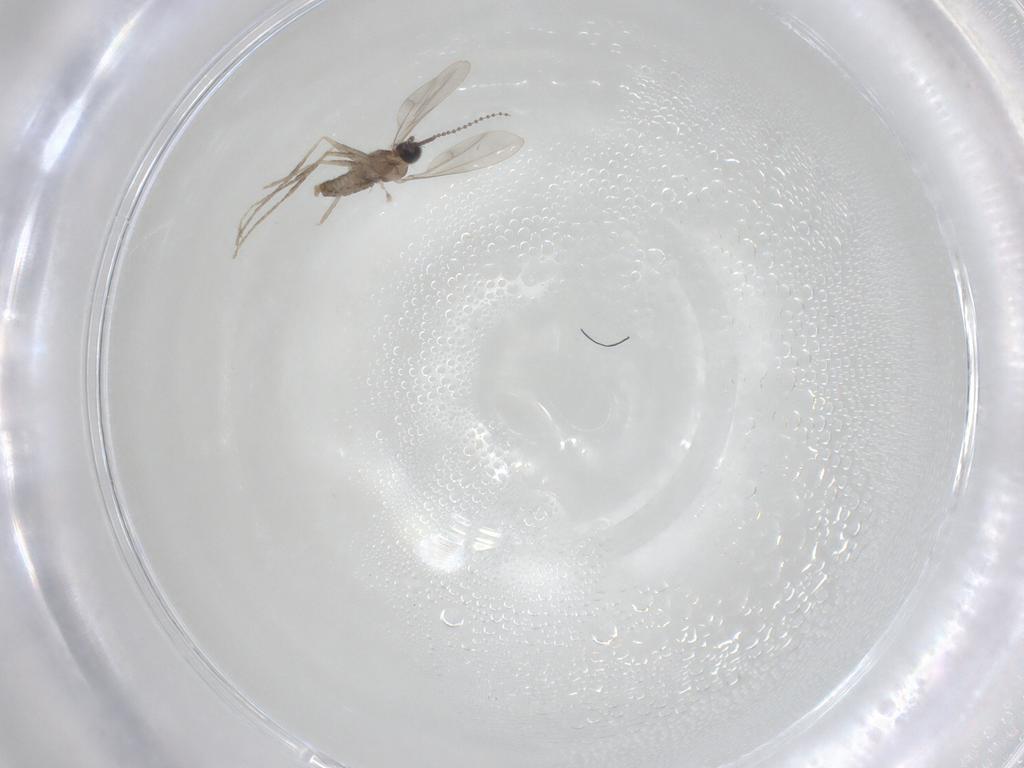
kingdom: Animalia
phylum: Arthropoda
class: Insecta
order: Diptera
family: Cecidomyiidae
